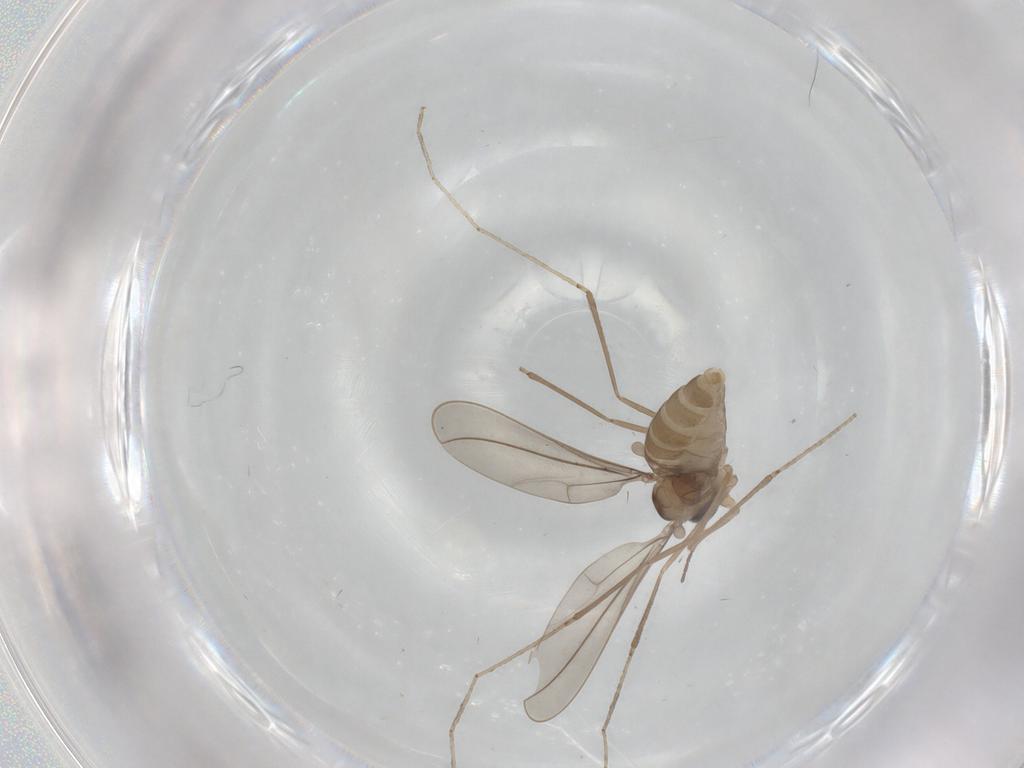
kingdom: Animalia
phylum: Arthropoda
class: Insecta
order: Diptera
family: Cecidomyiidae
